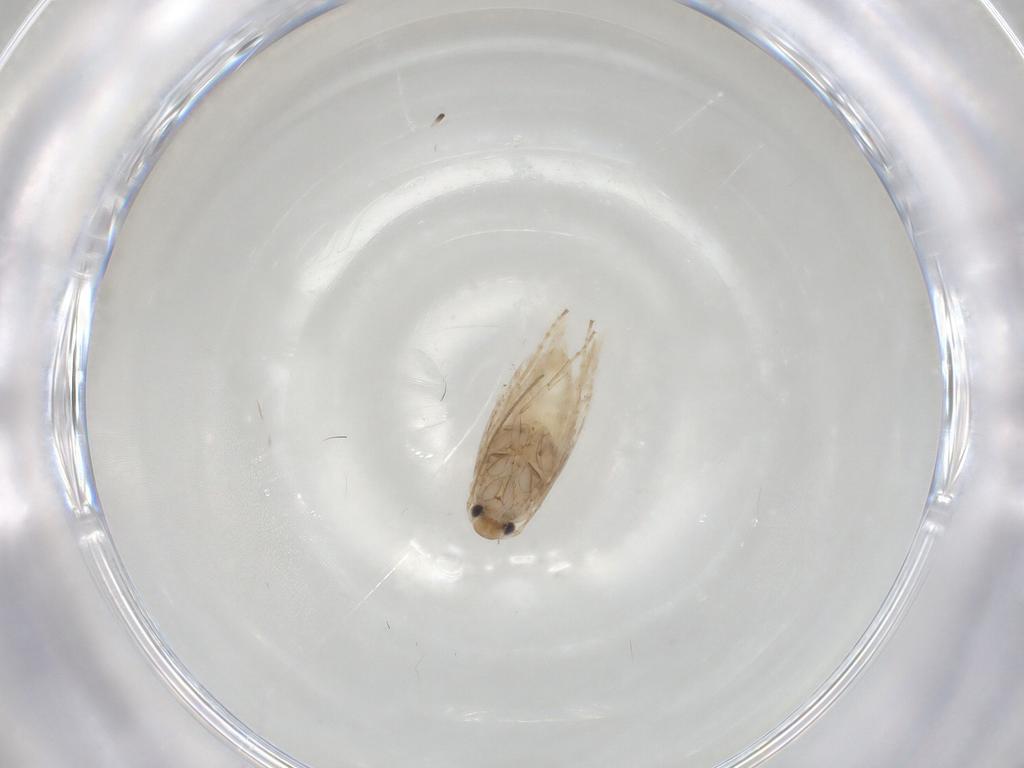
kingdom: Animalia
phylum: Arthropoda
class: Insecta
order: Lepidoptera
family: Depressariidae
